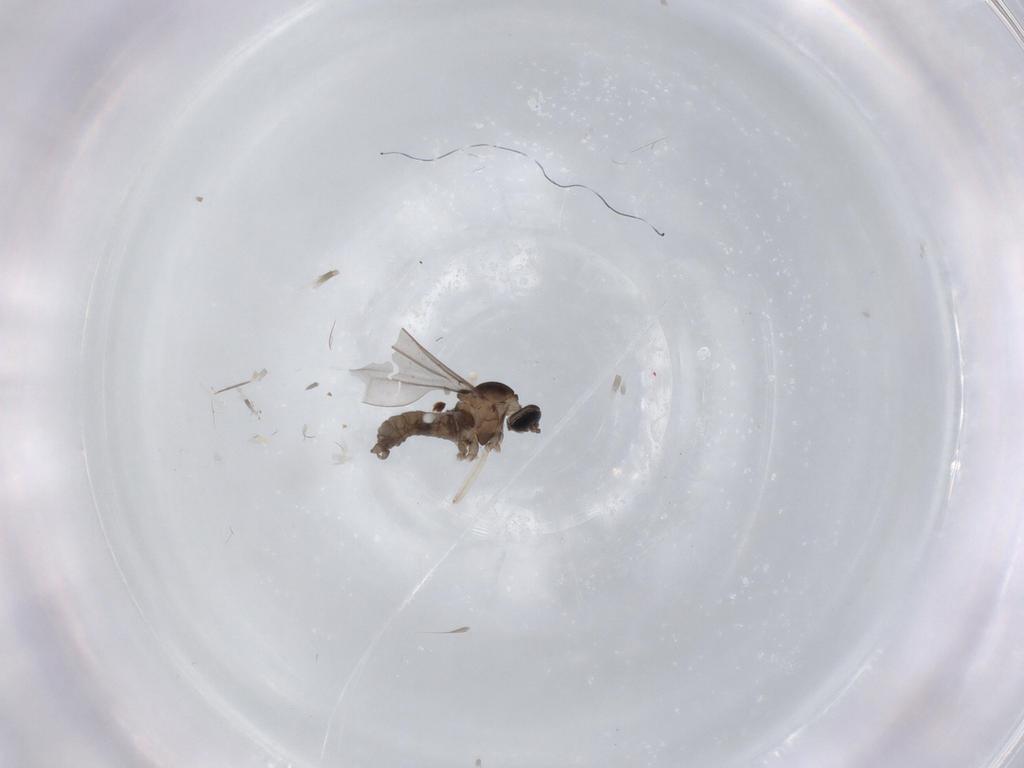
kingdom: Animalia
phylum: Arthropoda
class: Insecta
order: Diptera
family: Cecidomyiidae
